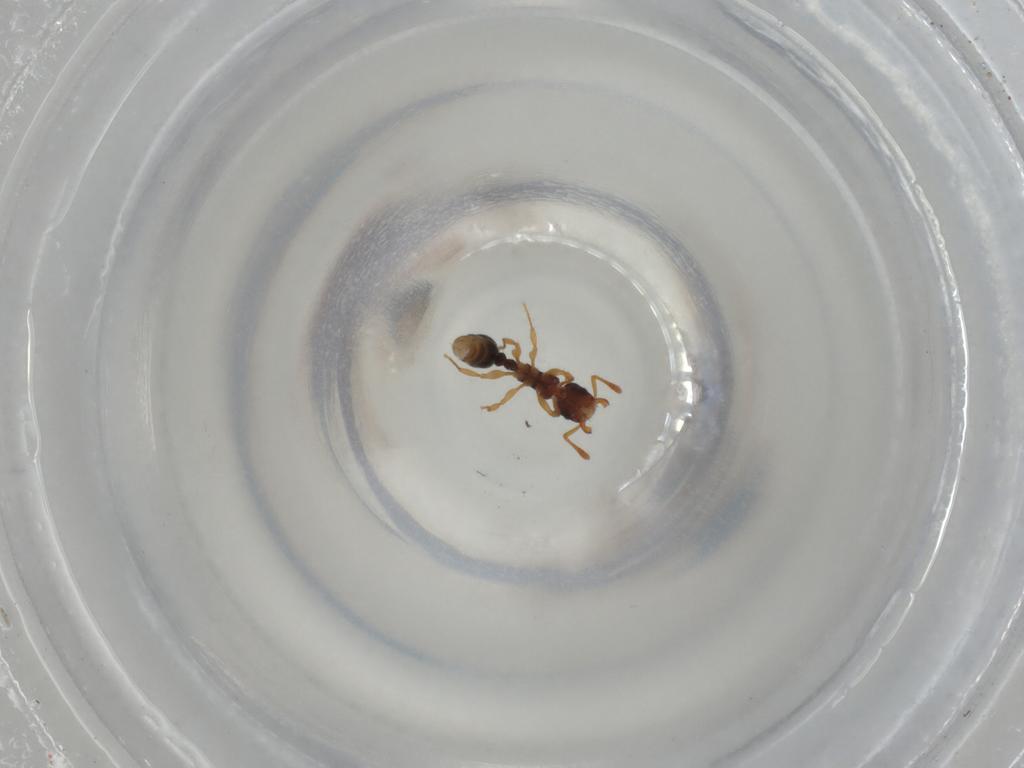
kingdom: Animalia
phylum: Arthropoda
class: Insecta
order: Hymenoptera
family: Formicidae
